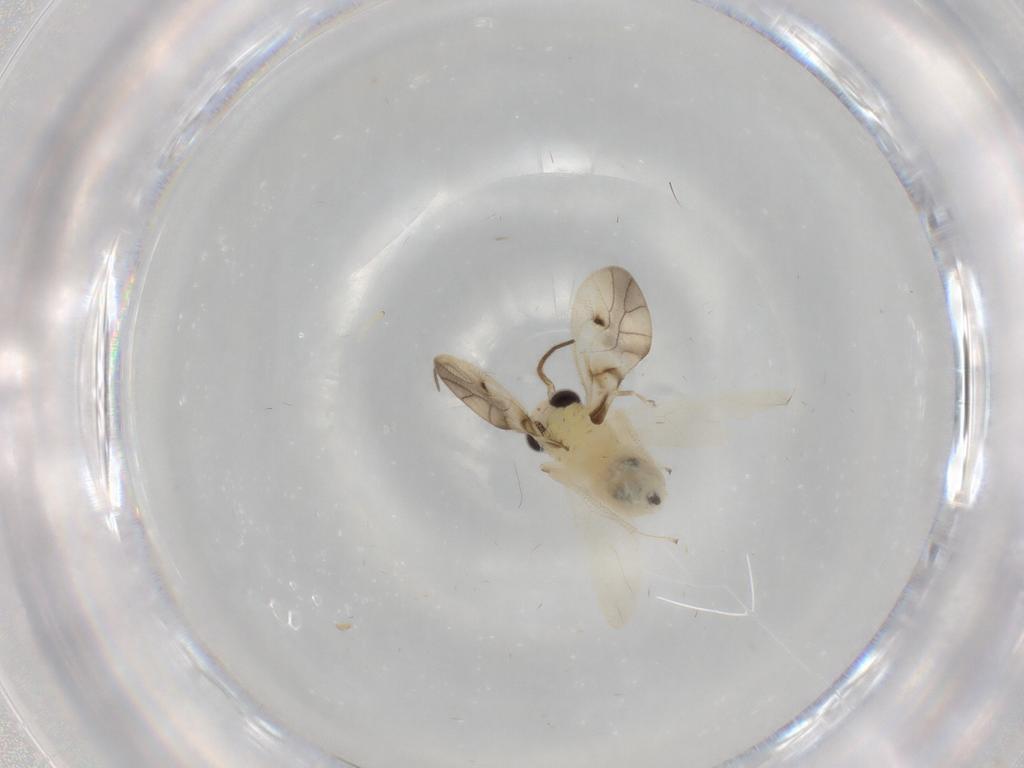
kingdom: Animalia
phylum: Arthropoda
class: Insecta
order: Psocodea
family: Caeciliusidae
